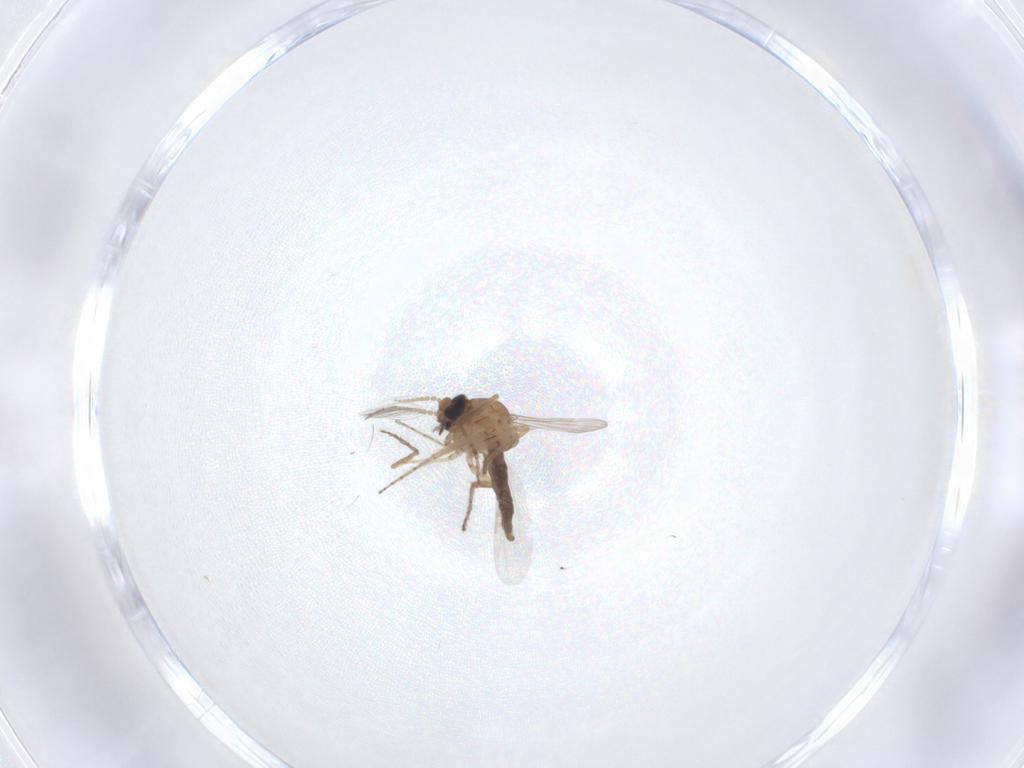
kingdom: Animalia
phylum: Arthropoda
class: Insecta
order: Diptera
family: Ceratopogonidae
